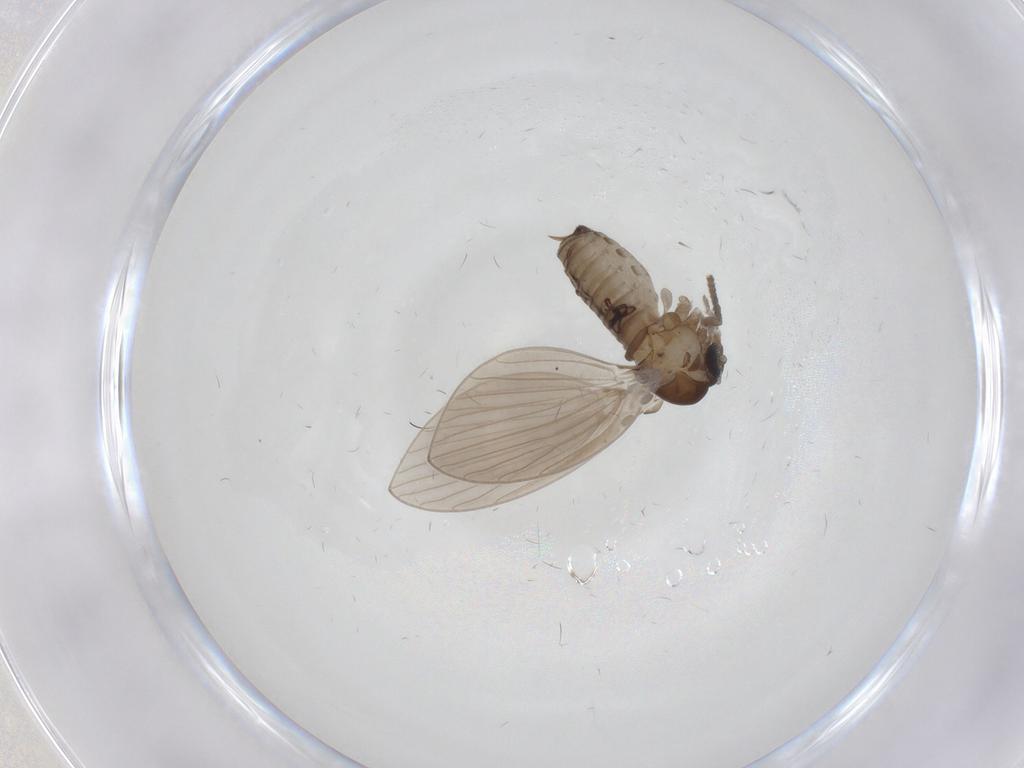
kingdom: Animalia
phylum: Arthropoda
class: Insecta
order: Diptera
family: Psychodidae
